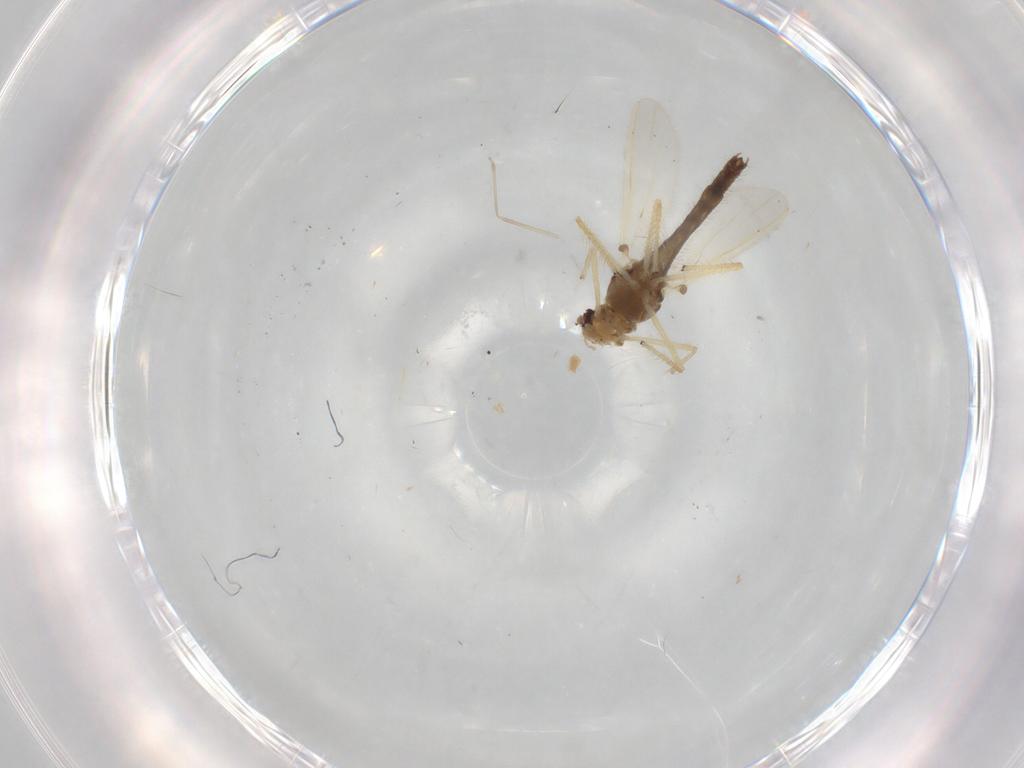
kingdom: Animalia
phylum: Arthropoda
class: Insecta
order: Diptera
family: Chironomidae
